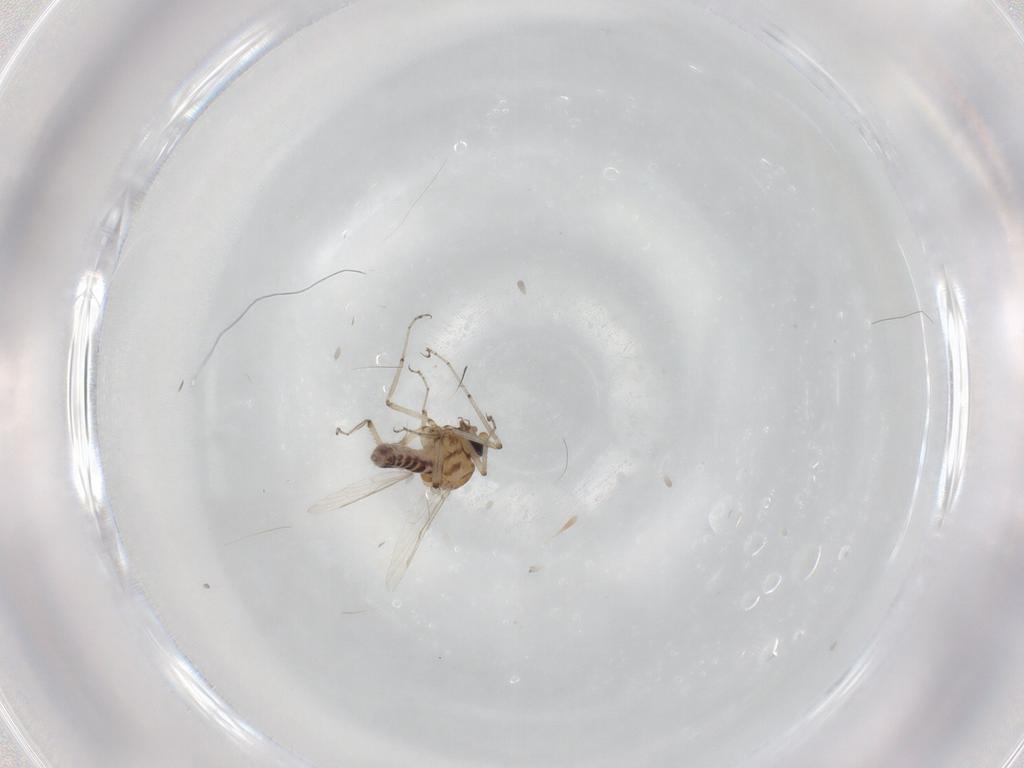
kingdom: Animalia
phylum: Arthropoda
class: Insecta
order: Diptera
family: Ceratopogonidae
